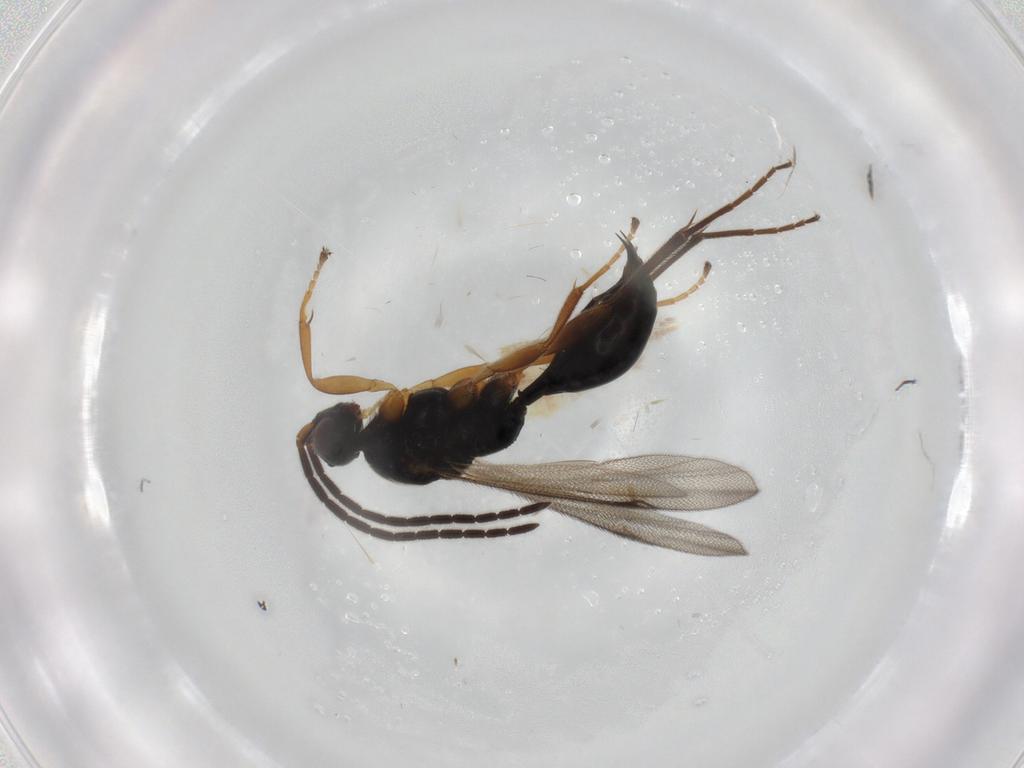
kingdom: Animalia
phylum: Arthropoda
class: Insecta
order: Hymenoptera
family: Proctotrupidae
